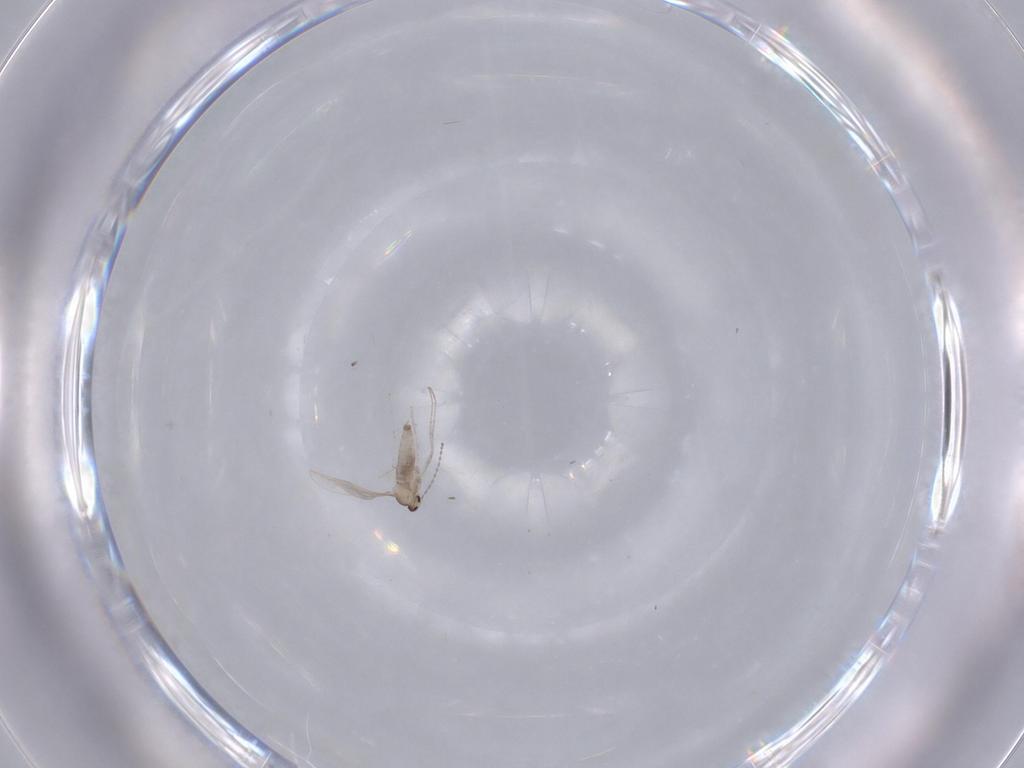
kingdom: Animalia
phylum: Arthropoda
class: Insecta
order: Diptera
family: Cecidomyiidae
